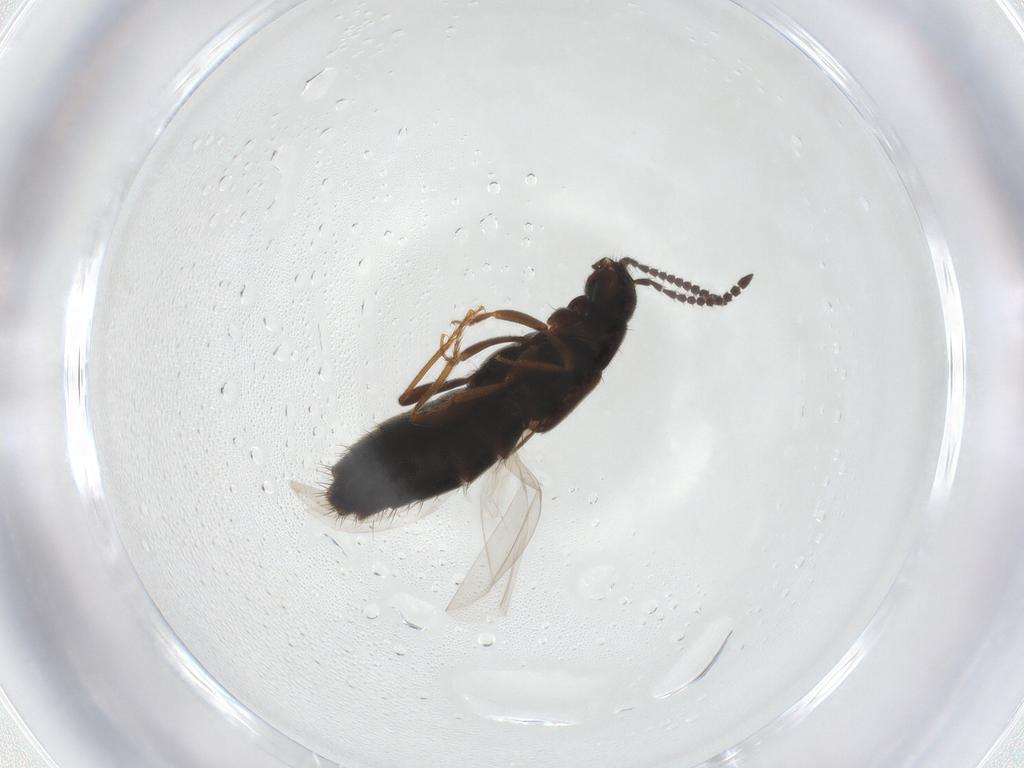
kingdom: Animalia
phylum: Arthropoda
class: Insecta
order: Coleoptera
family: Staphylinidae
